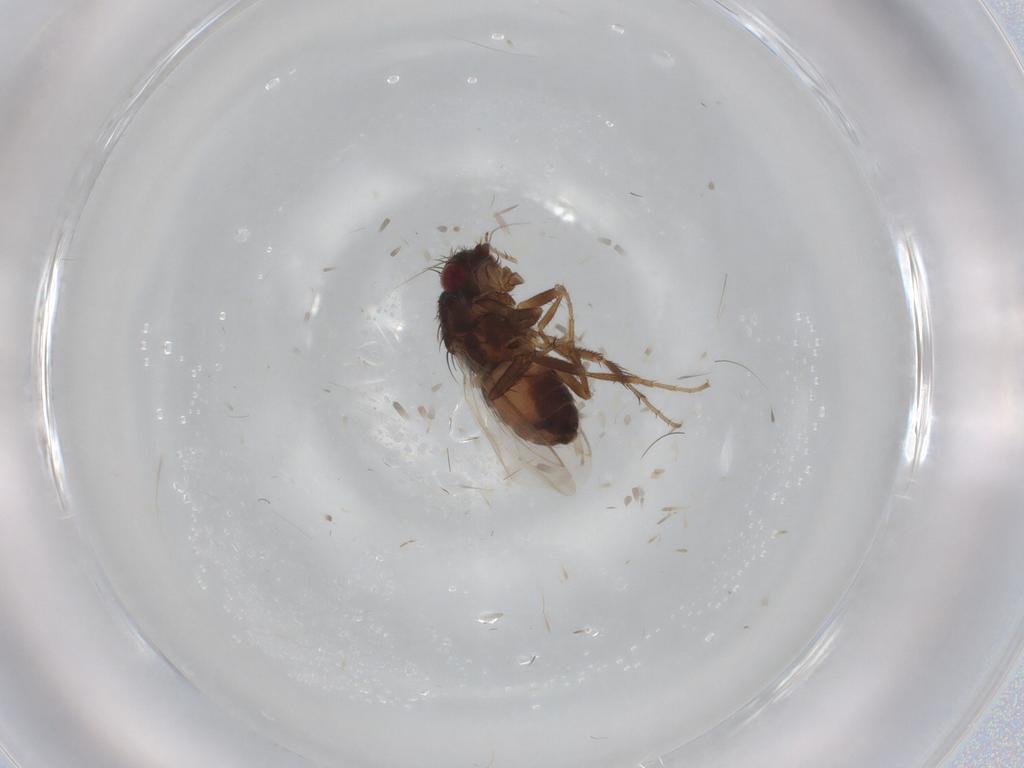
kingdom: Animalia
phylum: Arthropoda
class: Insecta
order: Diptera
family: Sphaeroceridae
